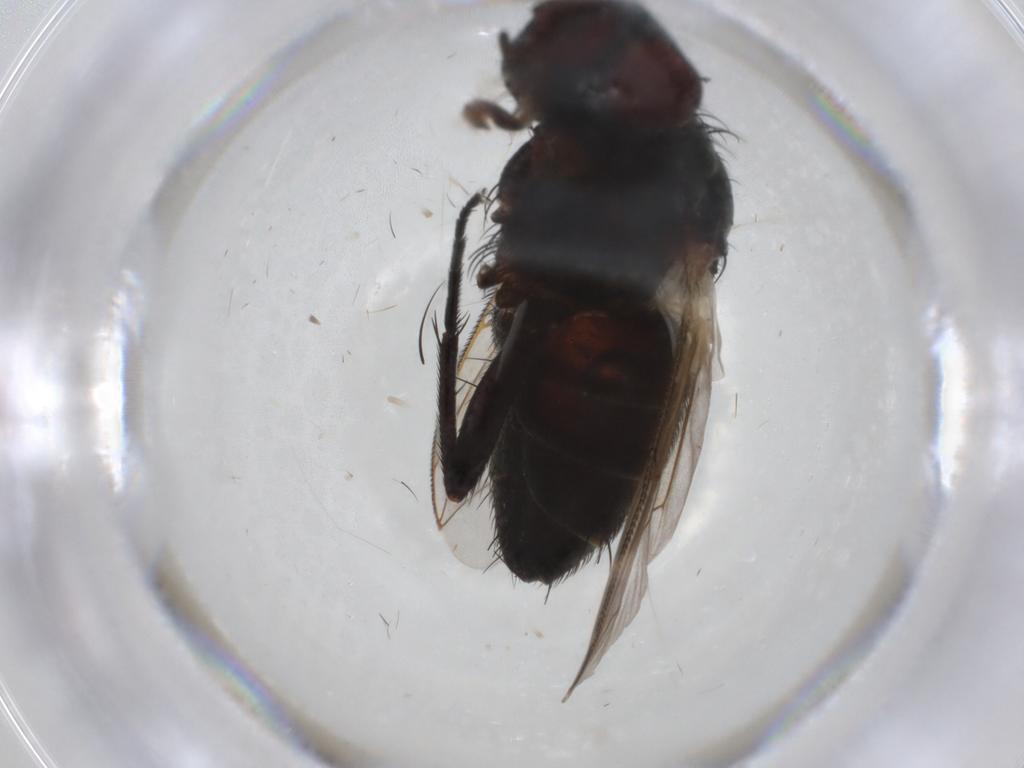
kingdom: Animalia
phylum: Arthropoda
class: Insecta
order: Diptera
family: Sarcophagidae
